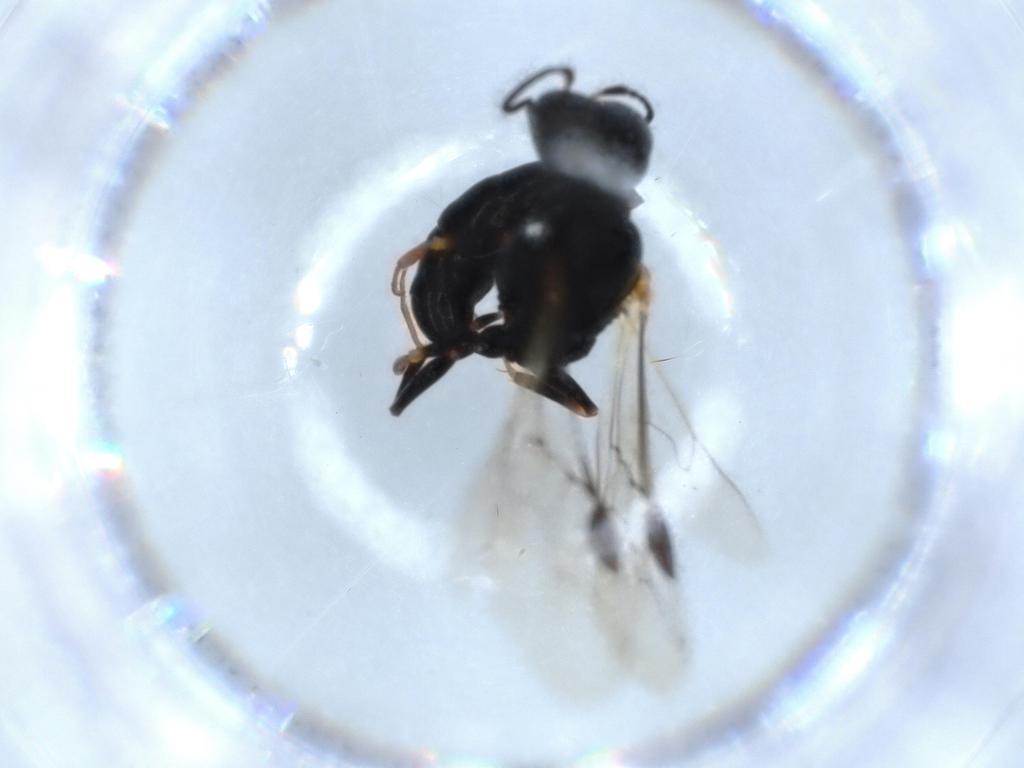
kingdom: Animalia
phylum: Arthropoda
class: Insecta
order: Hymenoptera
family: Crabronidae
